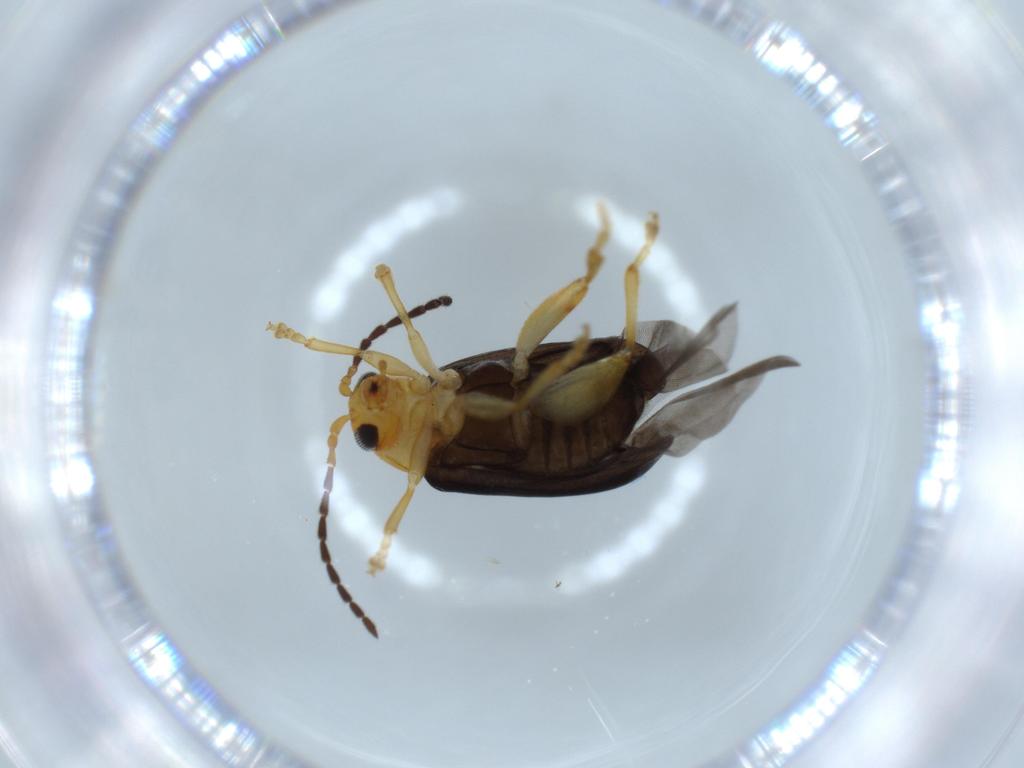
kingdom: Animalia
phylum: Arthropoda
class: Insecta
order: Coleoptera
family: Chrysomelidae
